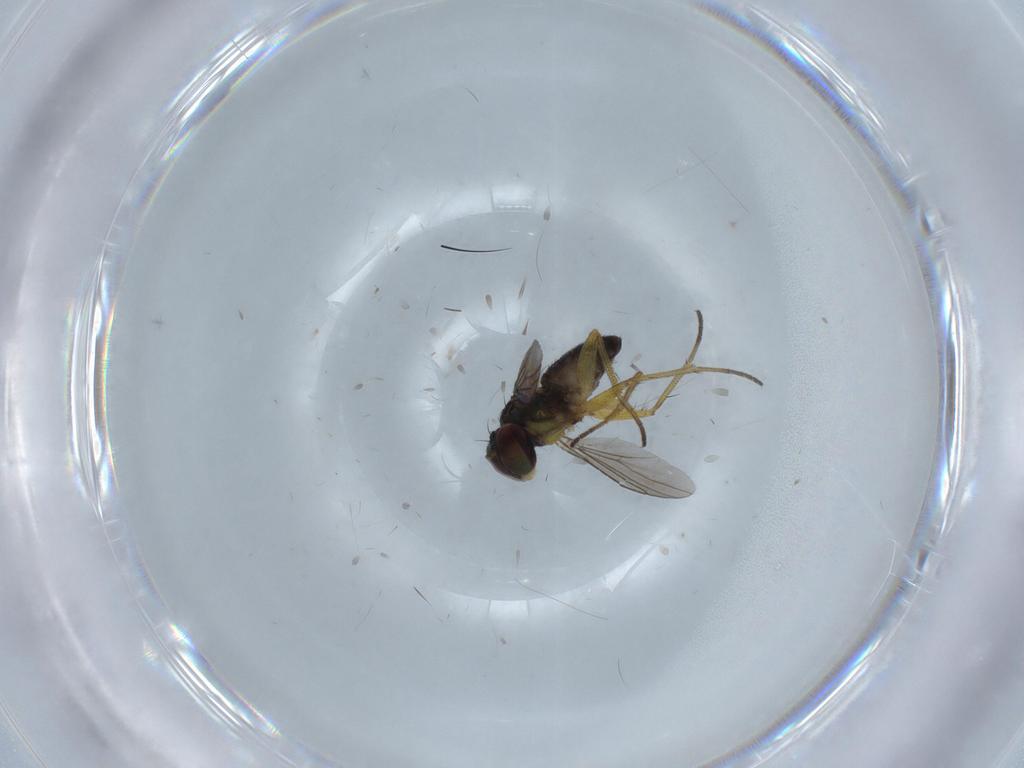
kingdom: Animalia
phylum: Arthropoda
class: Insecta
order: Diptera
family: Dolichopodidae
